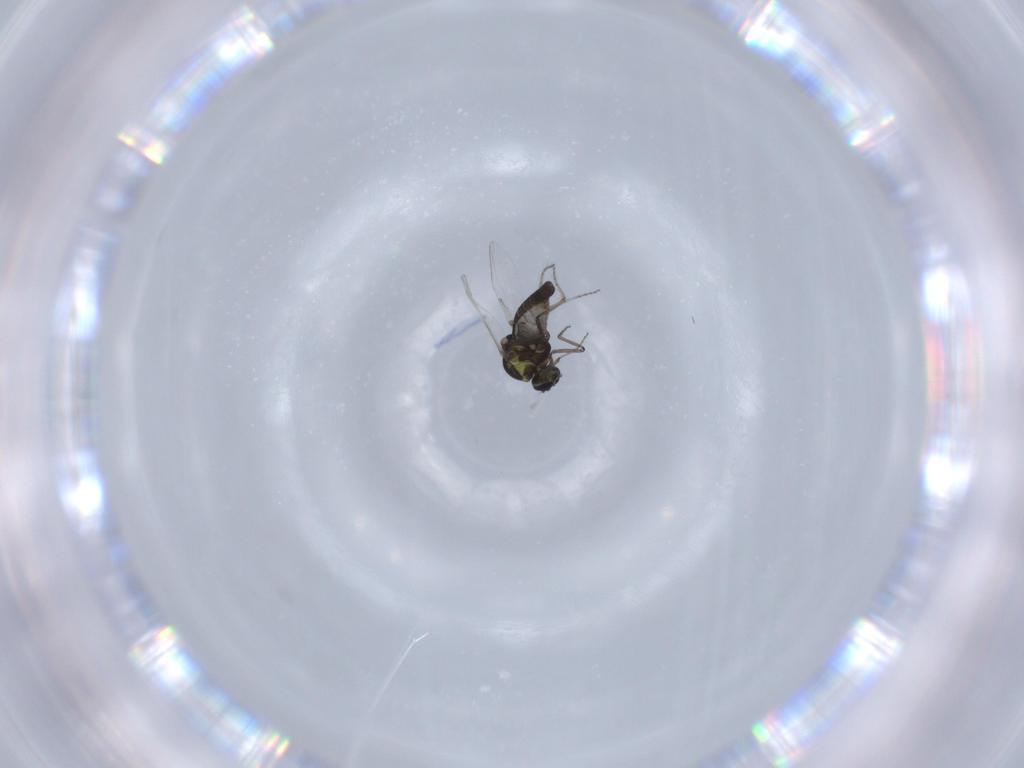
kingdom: Animalia
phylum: Arthropoda
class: Insecta
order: Diptera
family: Ceratopogonidae
